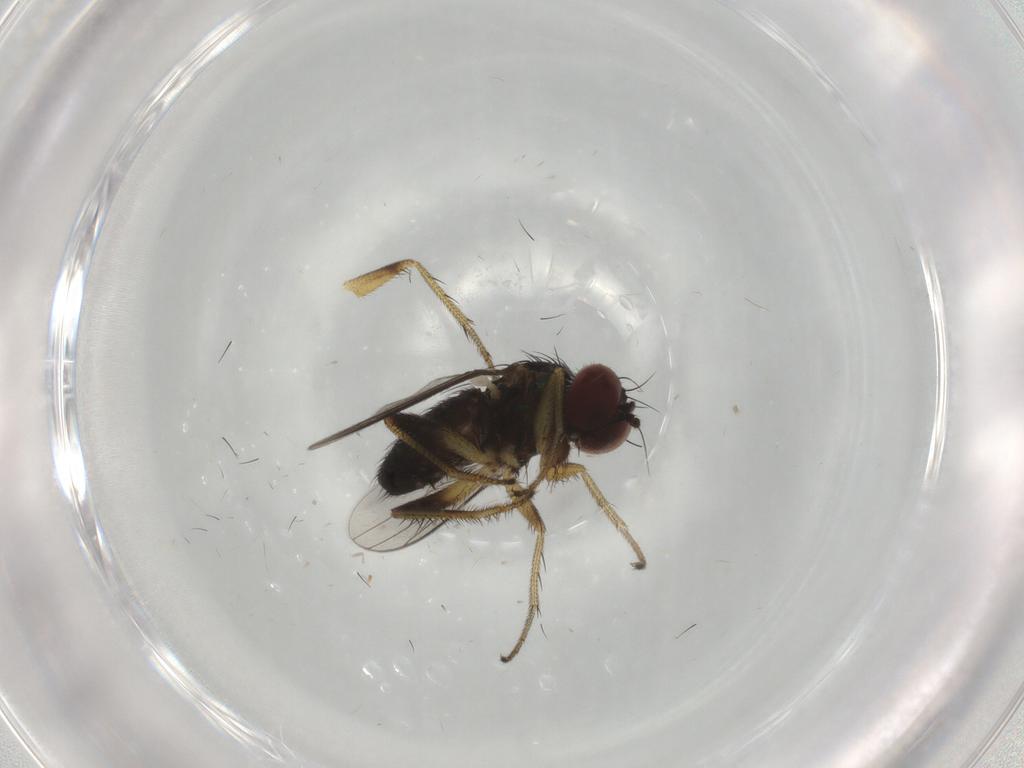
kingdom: Animalia
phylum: Arthropoda
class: Insecta
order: Diptera
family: Dolichopodidae
